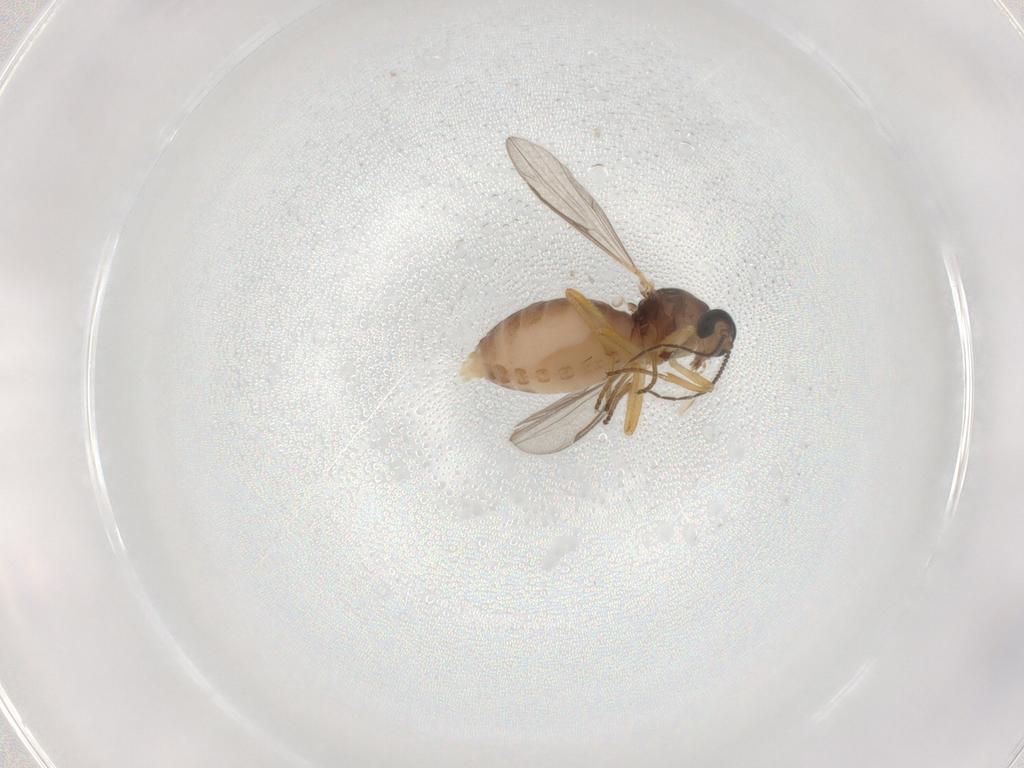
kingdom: Animalia
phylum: Arthropoda
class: Insecta
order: Diptera
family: Ceratopogonidae
